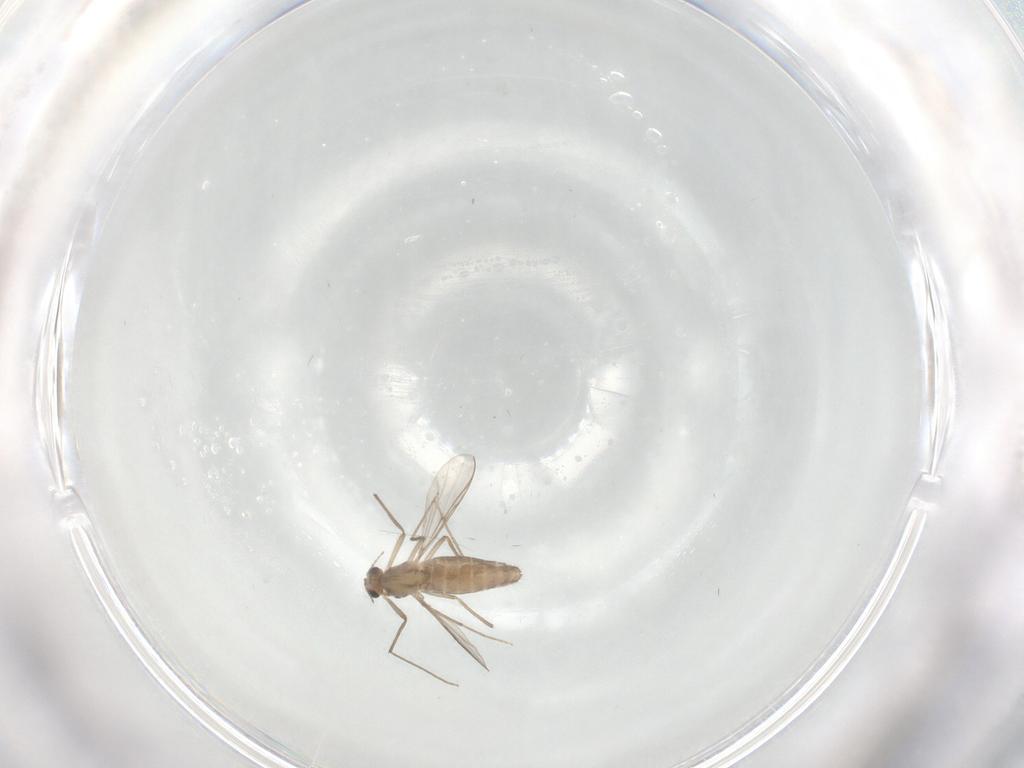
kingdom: Animalia
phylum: Arthropoda
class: Insecta
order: Diptera
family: Chironomidae
